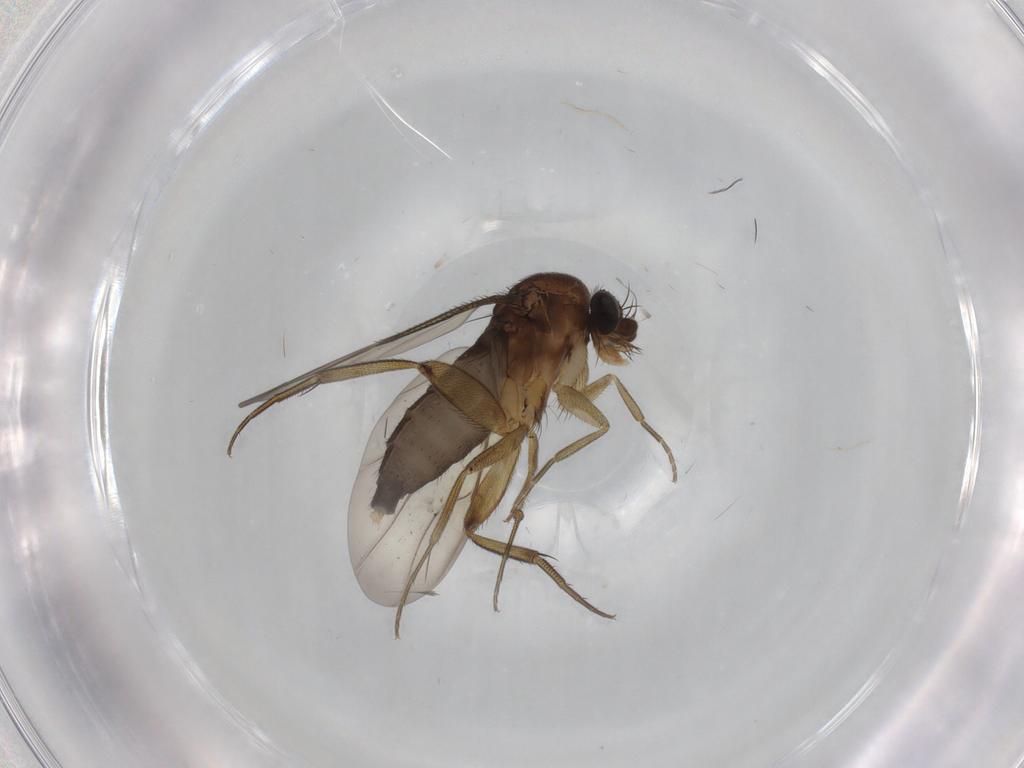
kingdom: Animalia
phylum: Arthropoda
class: Insecta
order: Diptera
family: Phoridae
